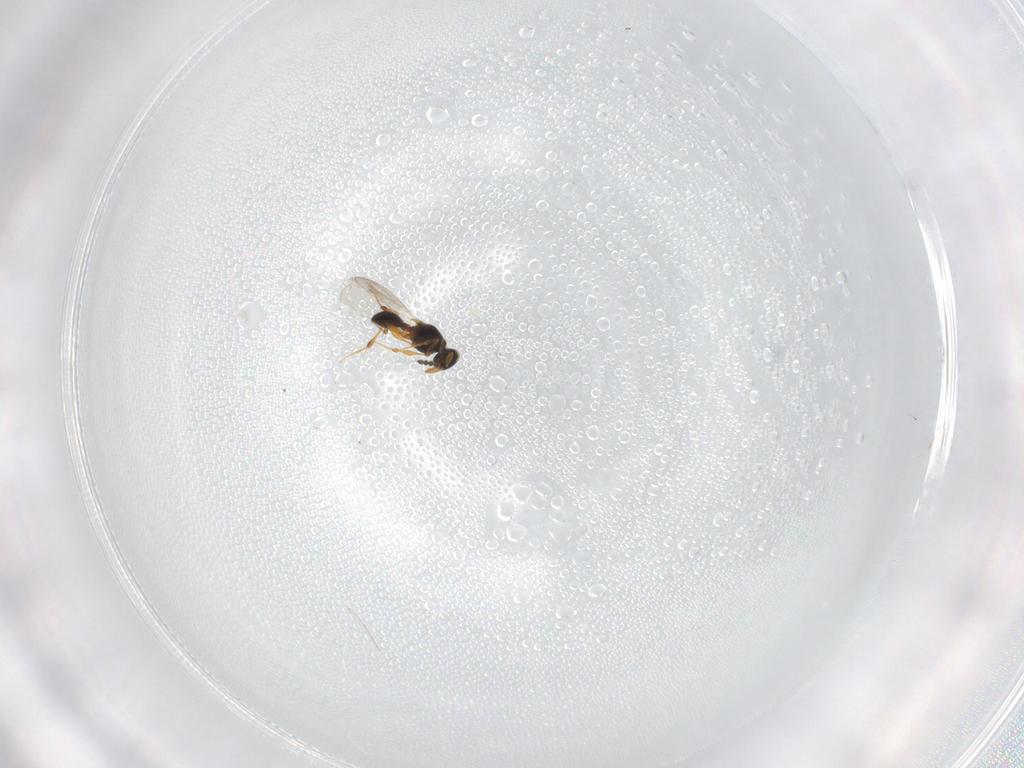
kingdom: Animalia
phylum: Arthropoda
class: Insecta
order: Hymenoptera
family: Platygastridae
